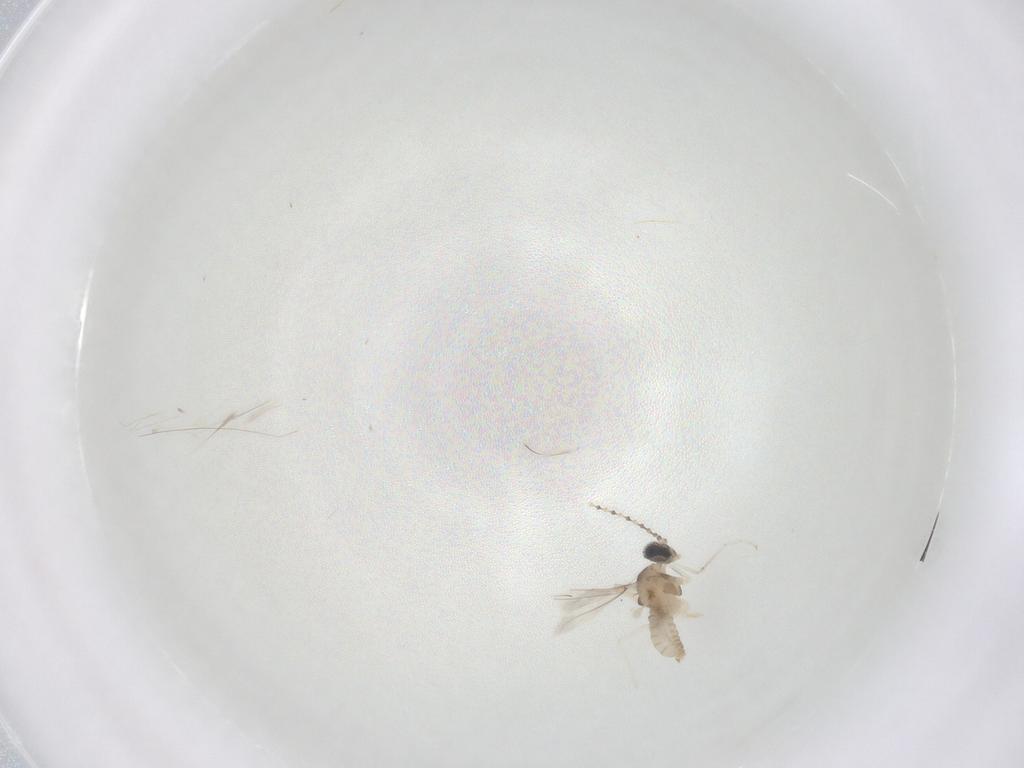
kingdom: Animalia
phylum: Arthropoda
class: Insecta
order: Diptera
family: Cecidomyiidae
